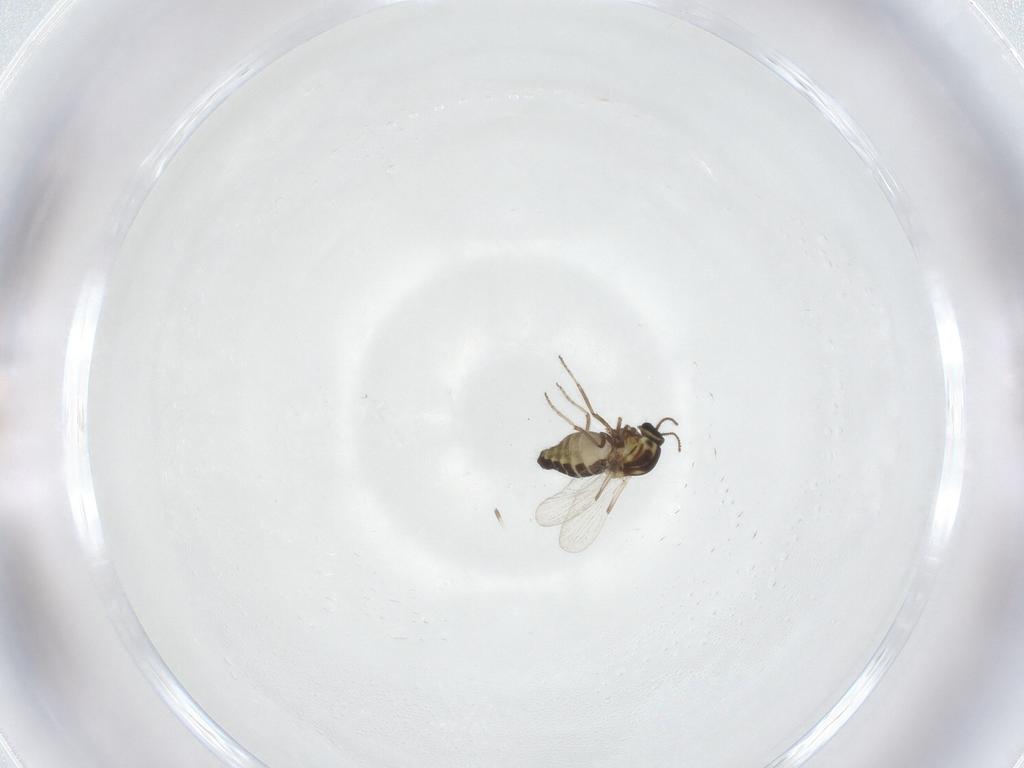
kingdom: Animalia
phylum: Arthropoda
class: Insecta
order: Diptera
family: Ceratopogonidae
